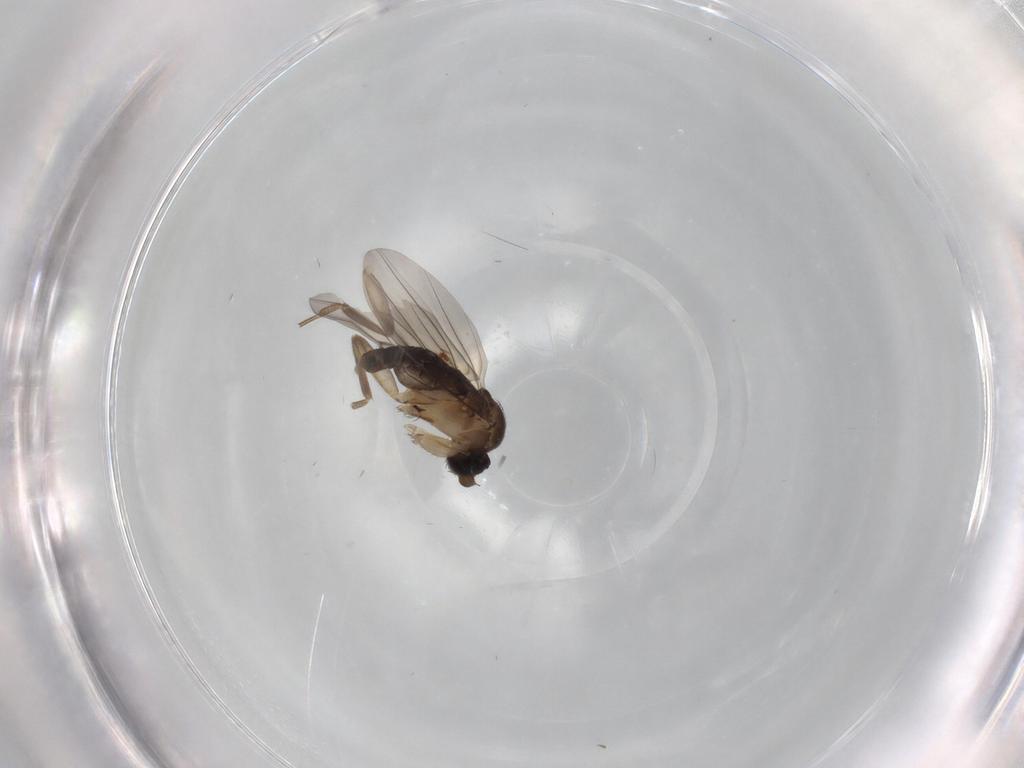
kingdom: Animalia
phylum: Arthropoda
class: Insecta
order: Diptera
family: Phoridae
